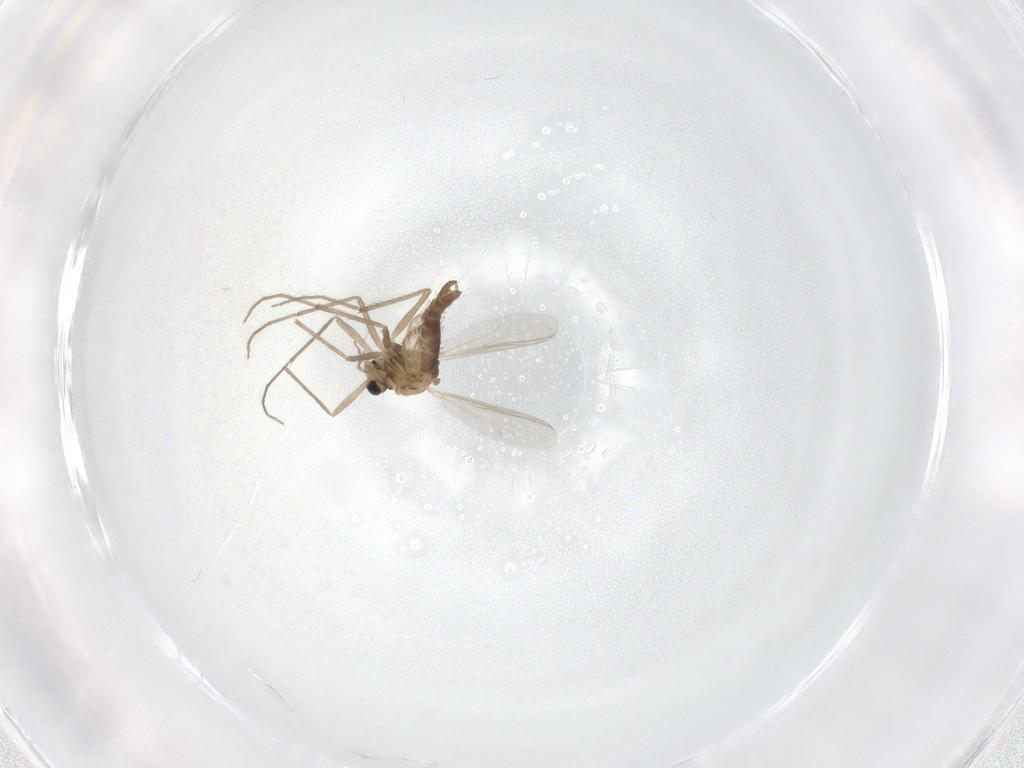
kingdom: Animalia
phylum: Arthropoda
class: Insecta
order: Diptera
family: Chironomidae
